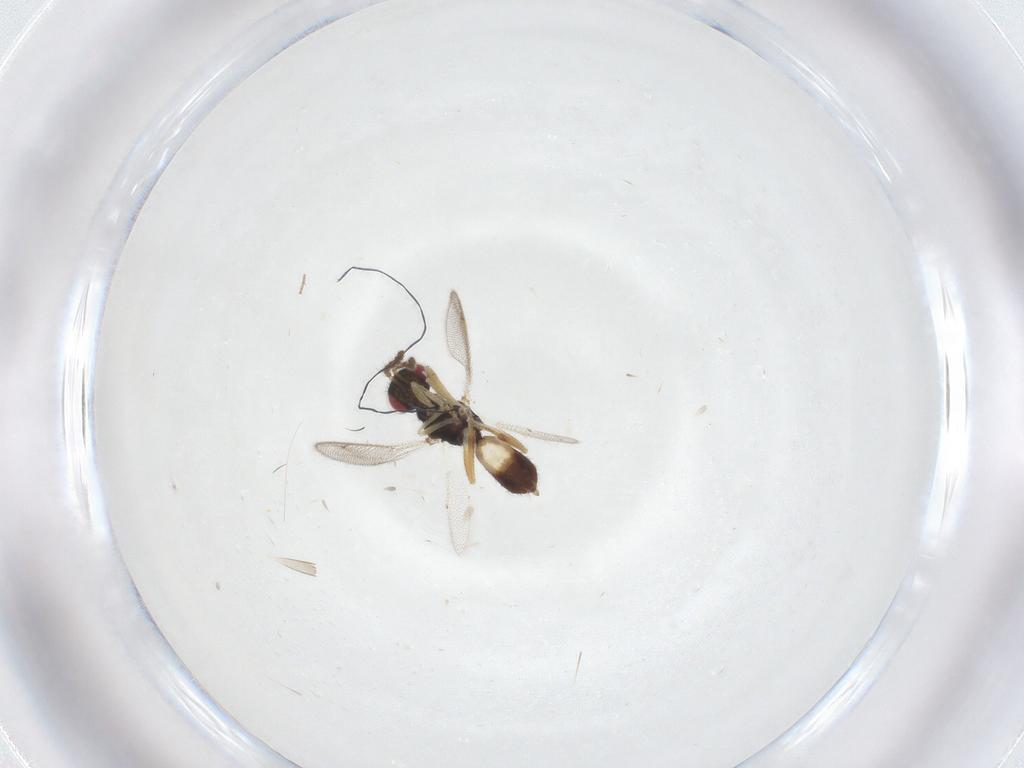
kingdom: Animalia
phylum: Arthropoda
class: Insecta
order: Hymenoptera
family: Eulophidae
